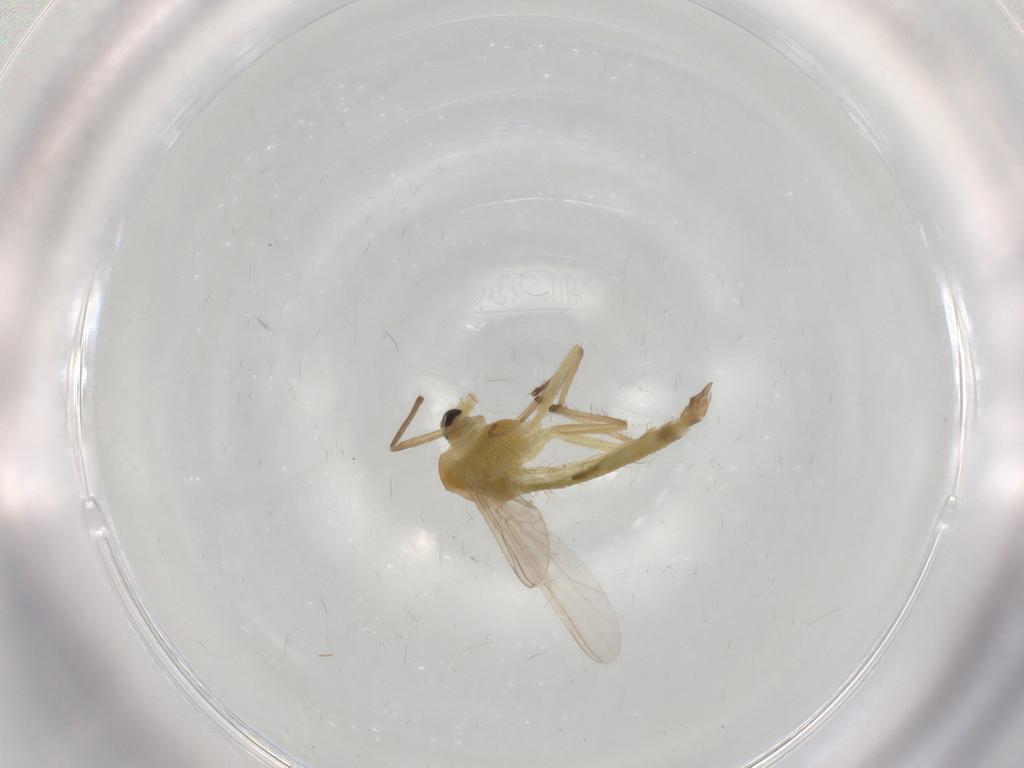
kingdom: Animalia
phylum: Arthropoda
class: Insecta
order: Diptera
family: Chironomidae
